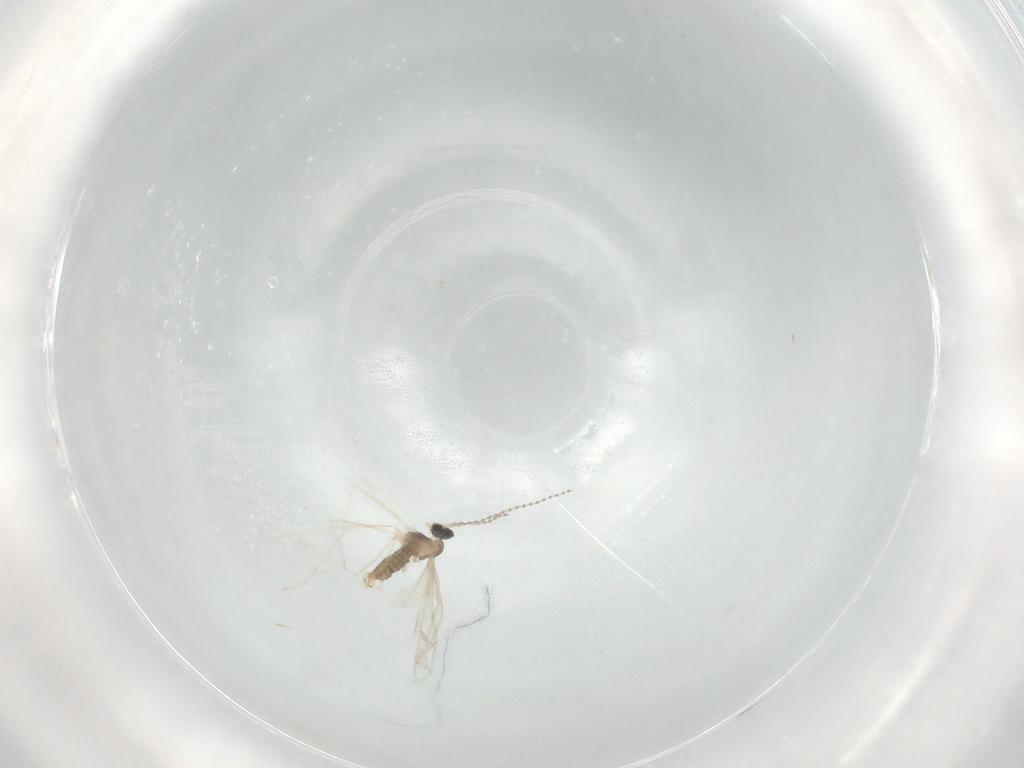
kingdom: Animalia
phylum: Arthropoda
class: Insecta
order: Diptera
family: Cecidomyiidae
